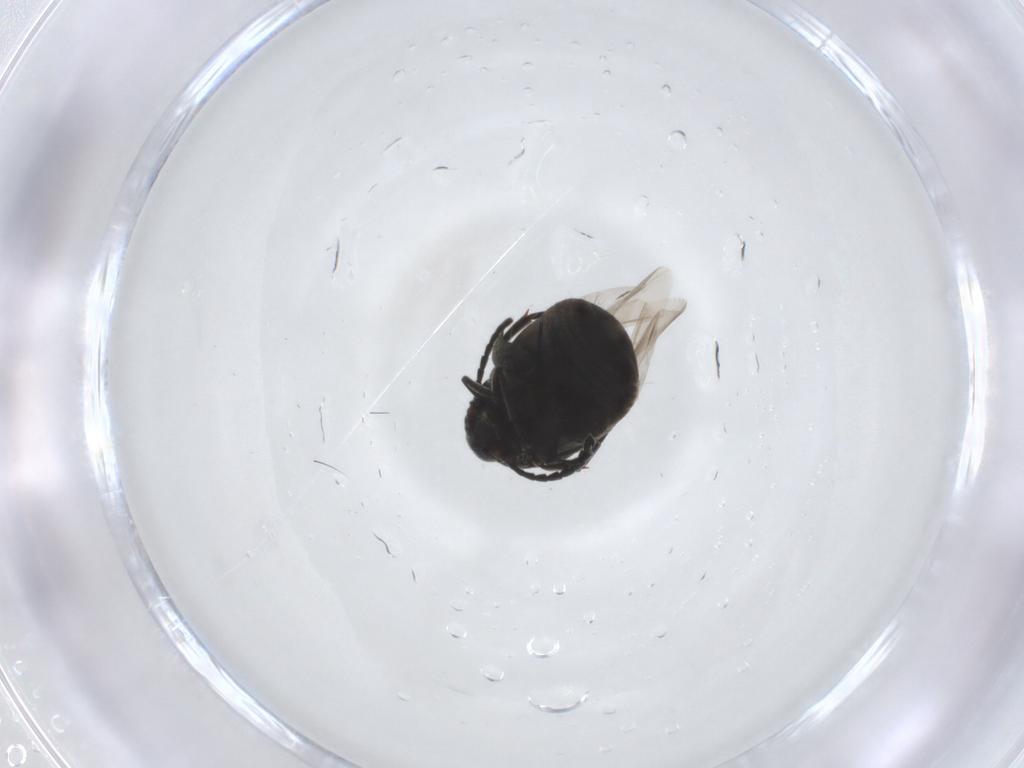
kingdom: Animalia
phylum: Arthropoda
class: Insecta
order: Coleoptera
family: Chrysomelidae
